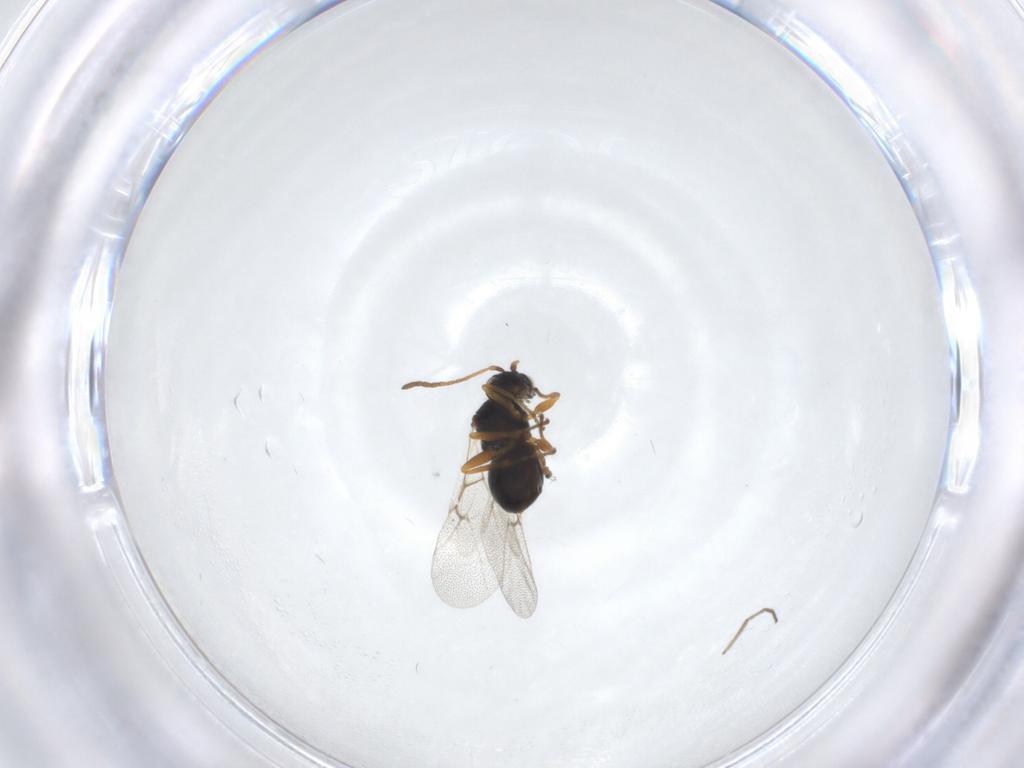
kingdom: Animalia
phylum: Arthropoda
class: Insecta
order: Hymenoptera
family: Cynipidae
